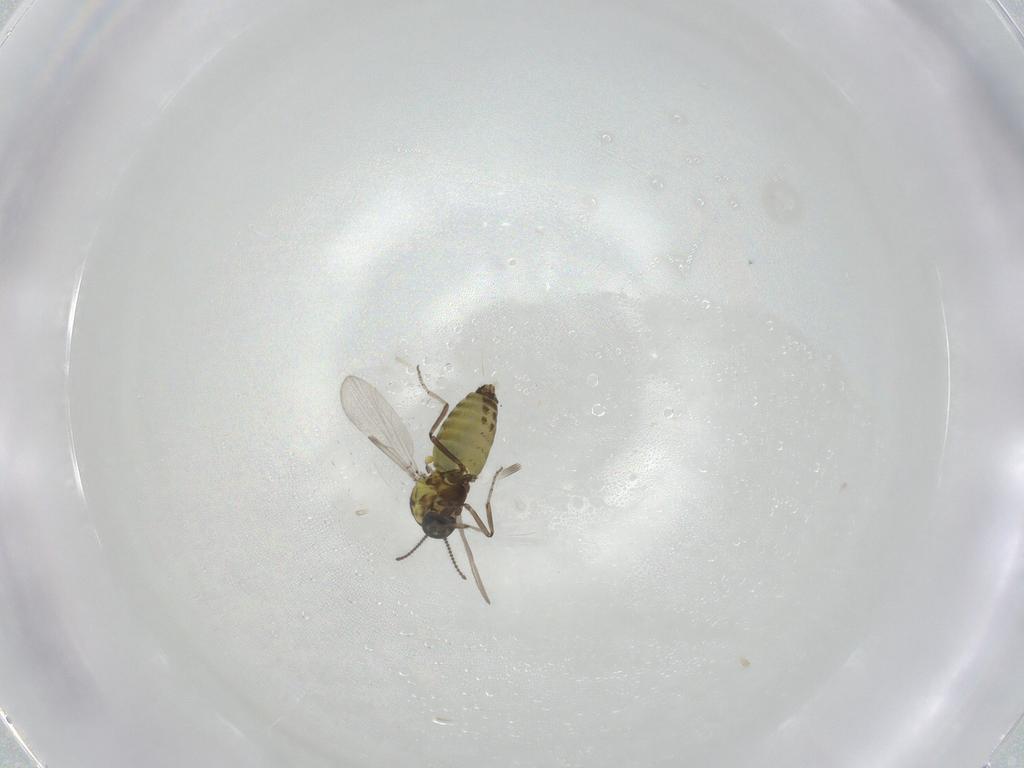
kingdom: Animalia
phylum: Arthropoda
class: Insecta
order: Diptera
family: Ceratopogonidae
